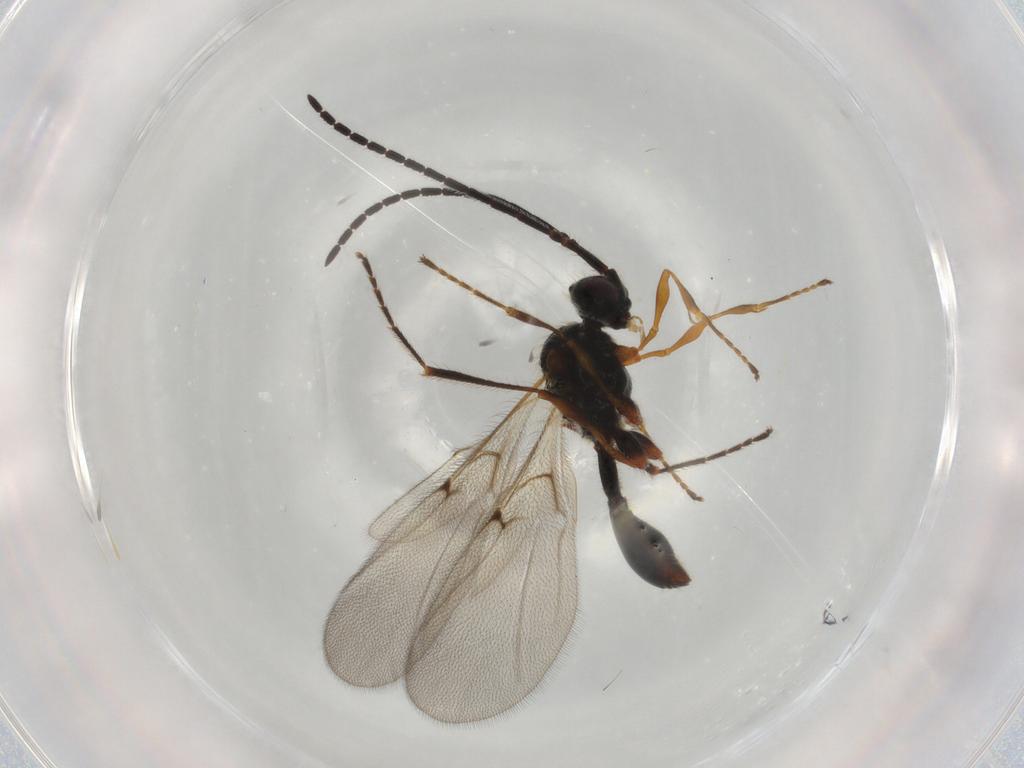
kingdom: Animalia
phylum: Arthropoda
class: Insecta
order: Hymenoptera
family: Diapriidae
